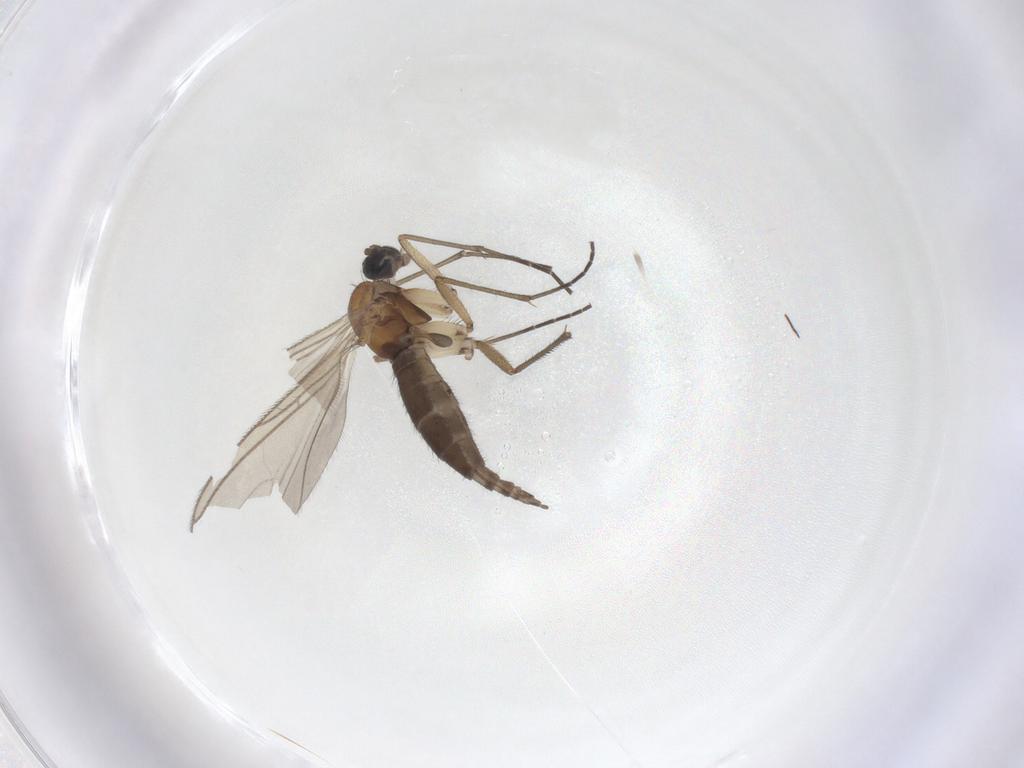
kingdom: Animalia
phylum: Arthropoda
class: Insecta
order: Diptera
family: Sciaridae
